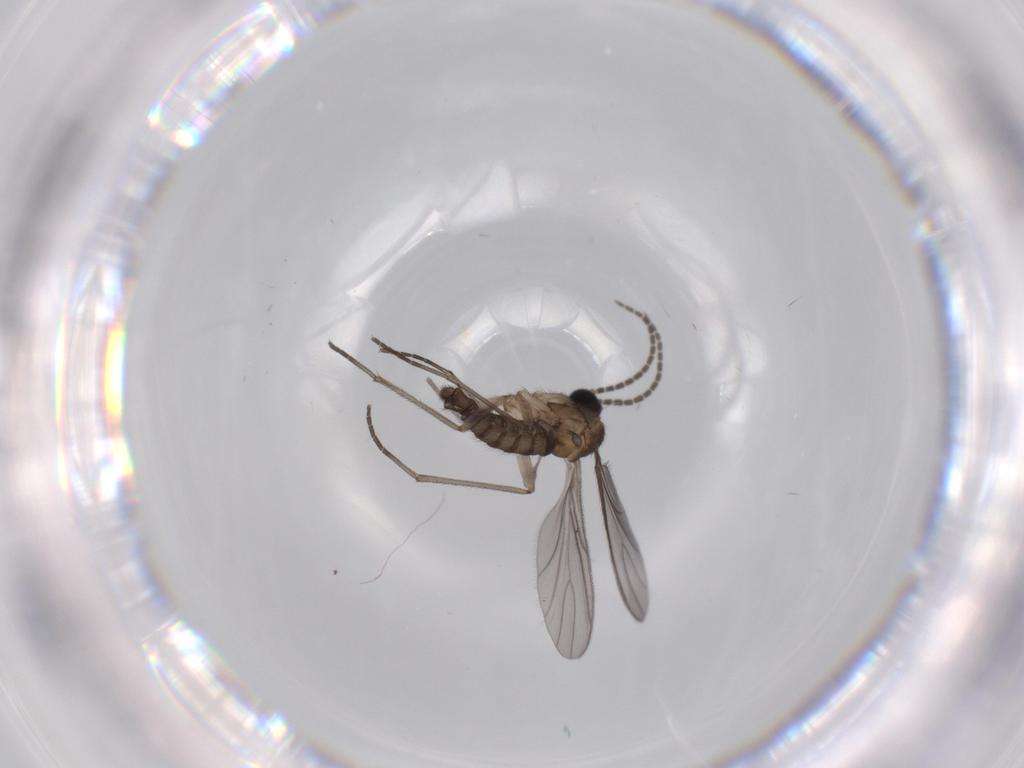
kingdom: Animalia
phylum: Arthropoda
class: Insecta
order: Diptera
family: Sciaridae
